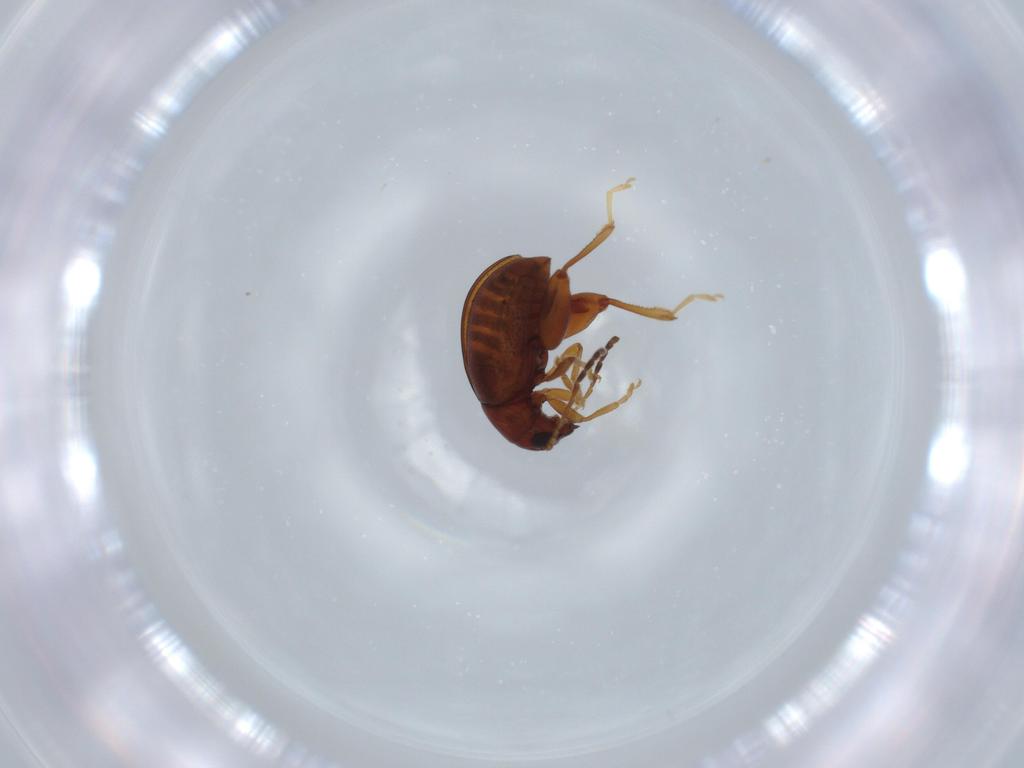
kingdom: Animalia
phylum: Arthropoda
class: Insecta
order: Coleoptera
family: Chrysomelidae
